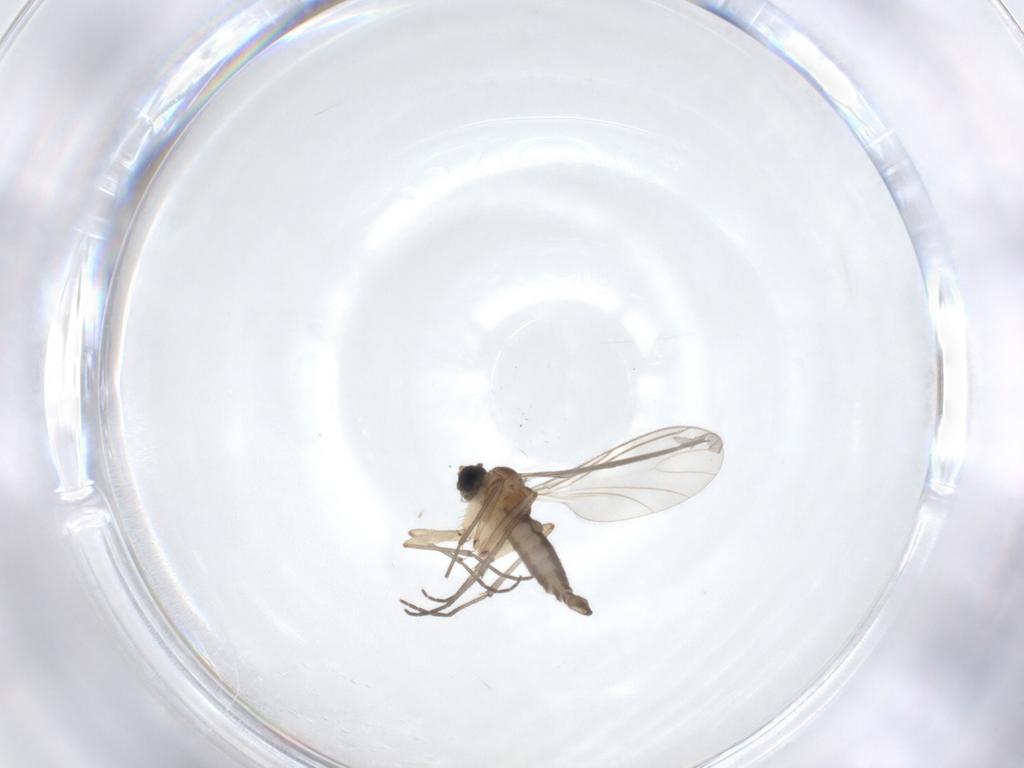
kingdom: Animalia
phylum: Arthropoda
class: Insecta
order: Diptera
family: Sciaridae
